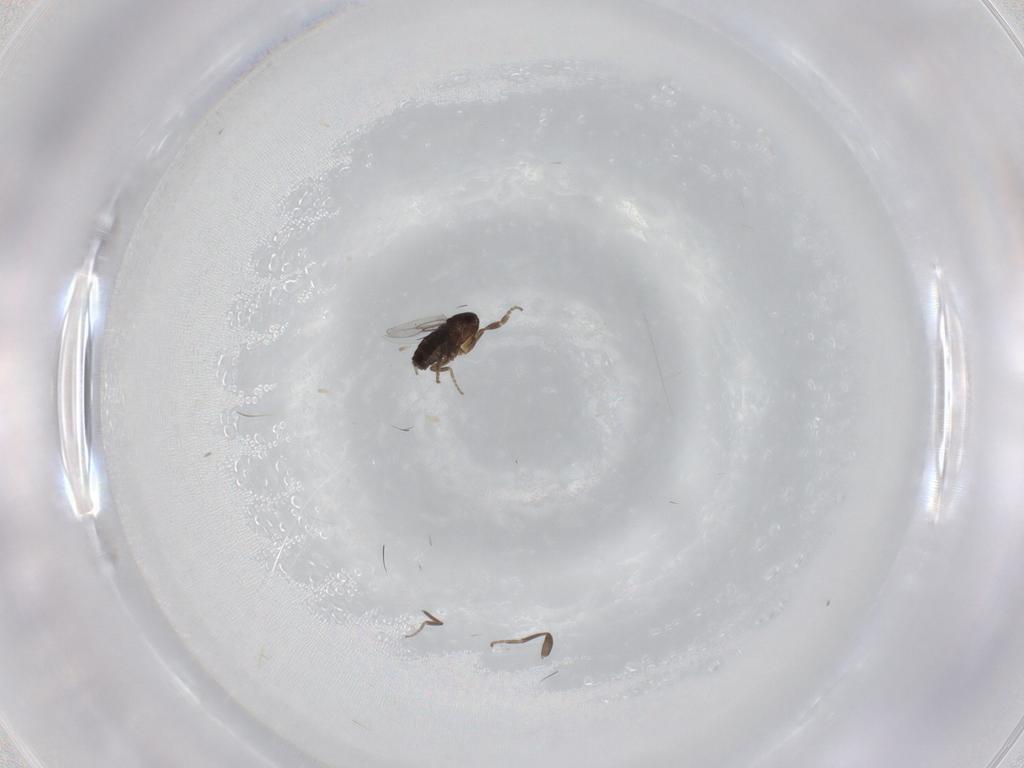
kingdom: Animalia
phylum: Arthropoda
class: Insecta
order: Diptera
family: Phoridae
